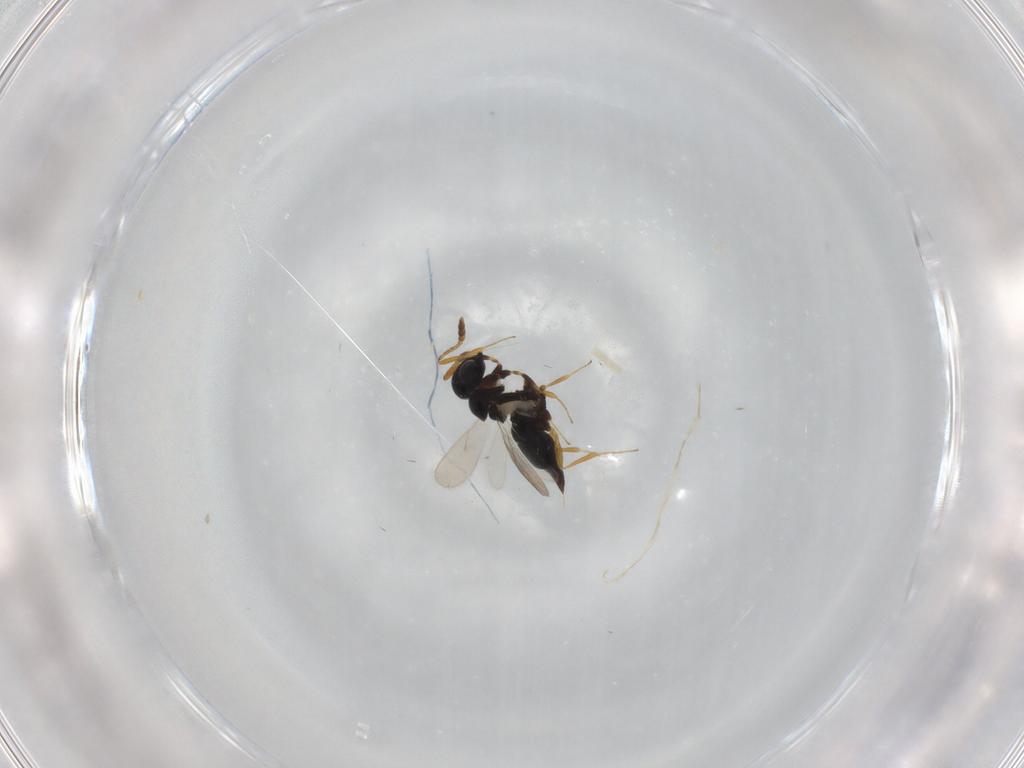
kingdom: Animalia
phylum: Arthropoda
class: Insecta
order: Hymenoptera
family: Scelionidae
